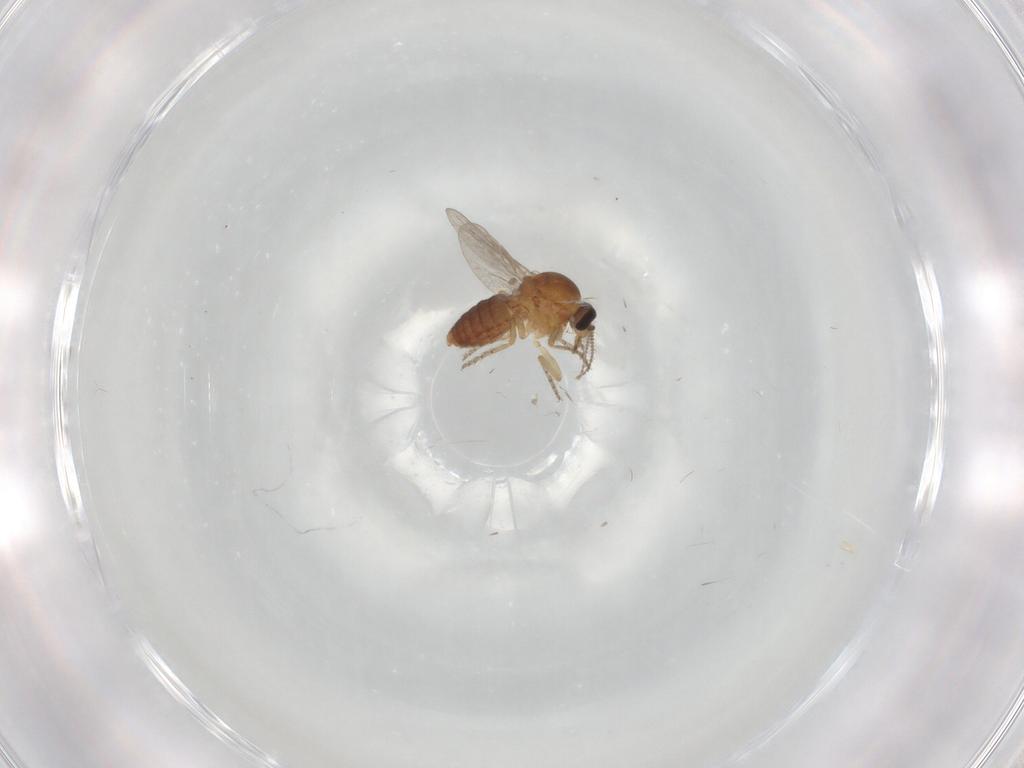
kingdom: Animalia
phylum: Arthropoda
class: Insecta
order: Diptera
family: Ceratopogonidae
